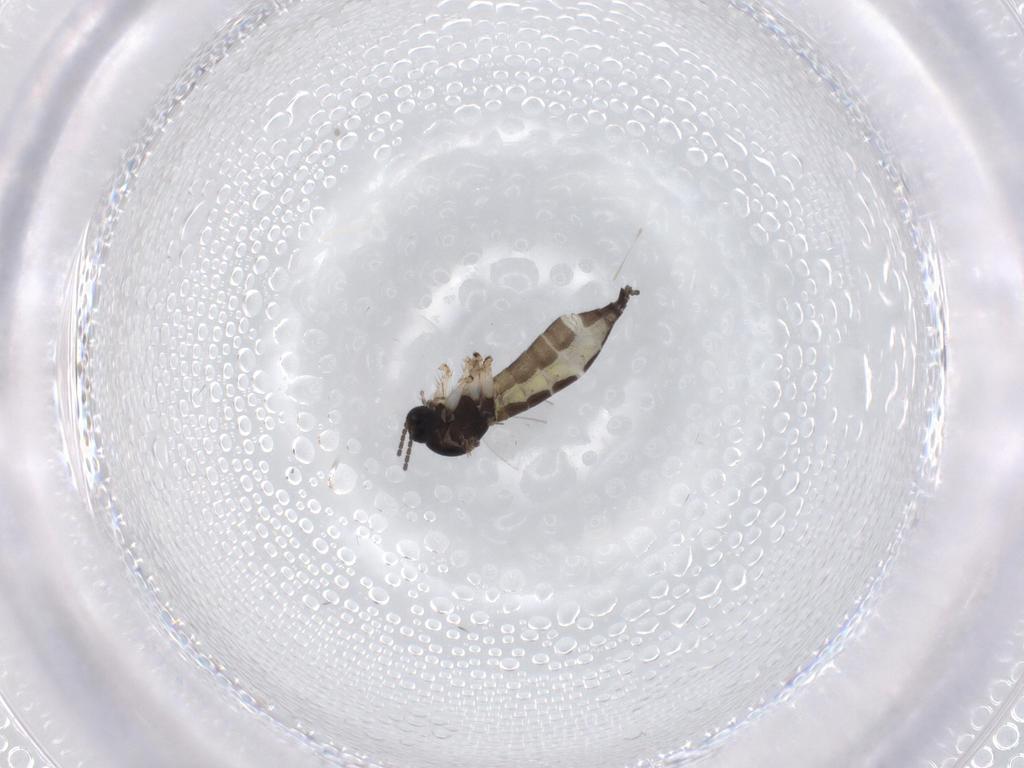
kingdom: Animalia
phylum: Arthropoda
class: Insecta
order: Diptera
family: Sciaridae
